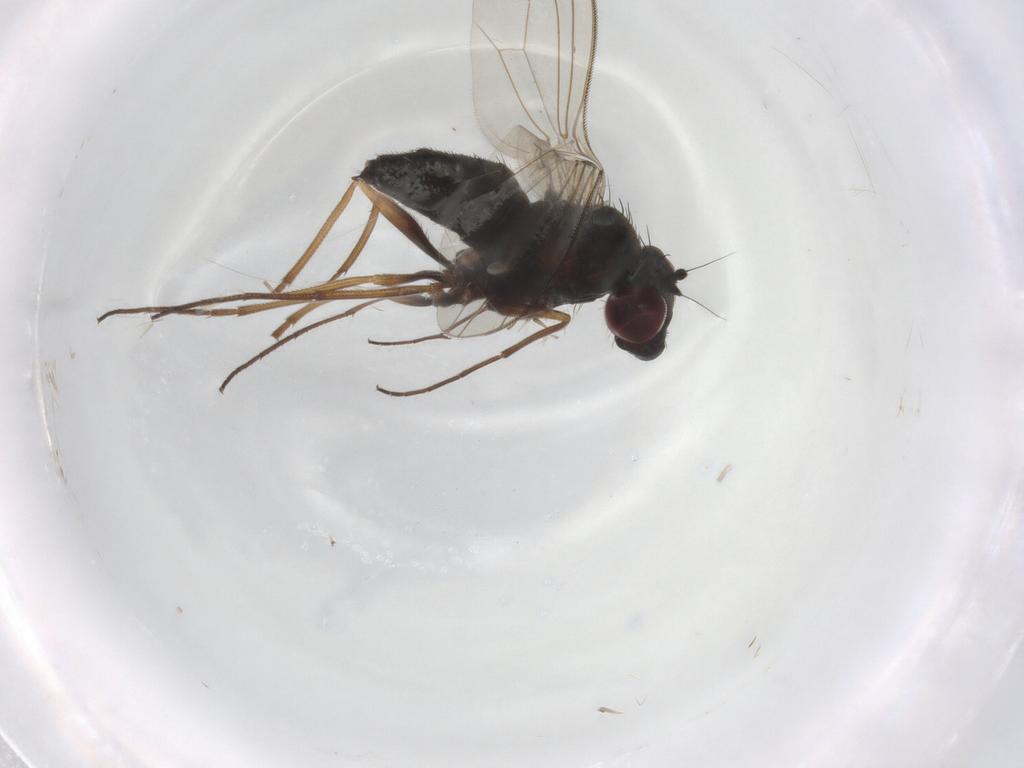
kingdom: Animalia
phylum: Arthropoda
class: Insecta
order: Diptera
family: Dolichopodidae
